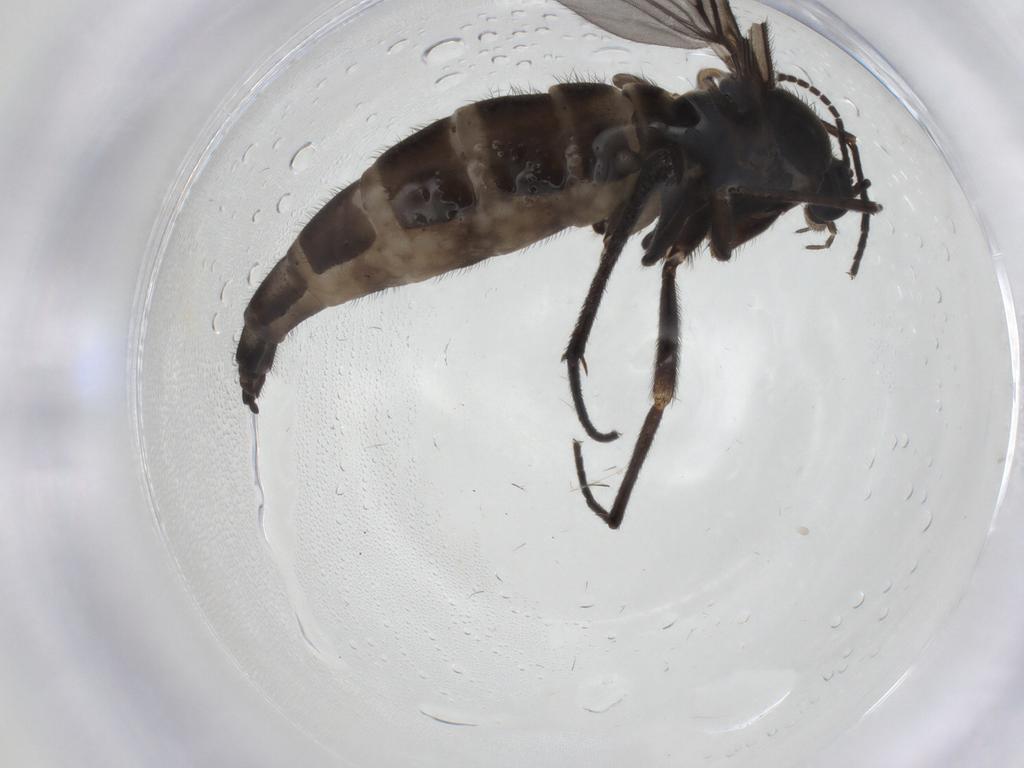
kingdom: Animalia
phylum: Arthropoda
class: Insecta
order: Diptera
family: Sciaridae
